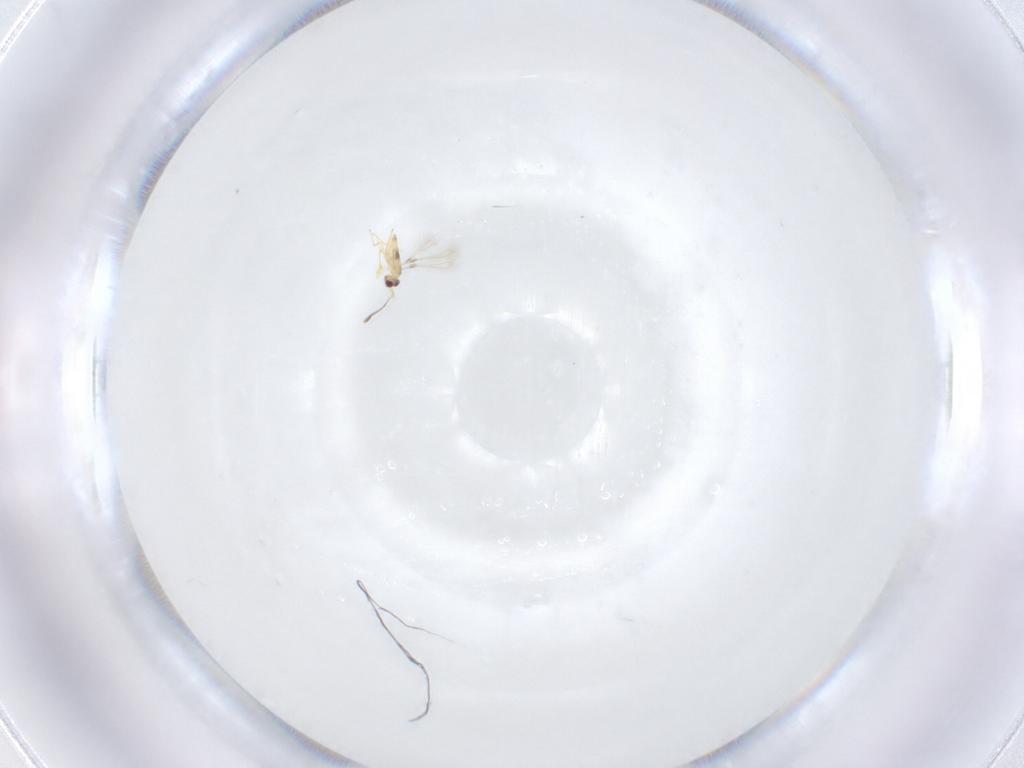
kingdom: Animalia
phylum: Arthropoda
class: Insecta
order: Hymenoptera
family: Mymaridae
